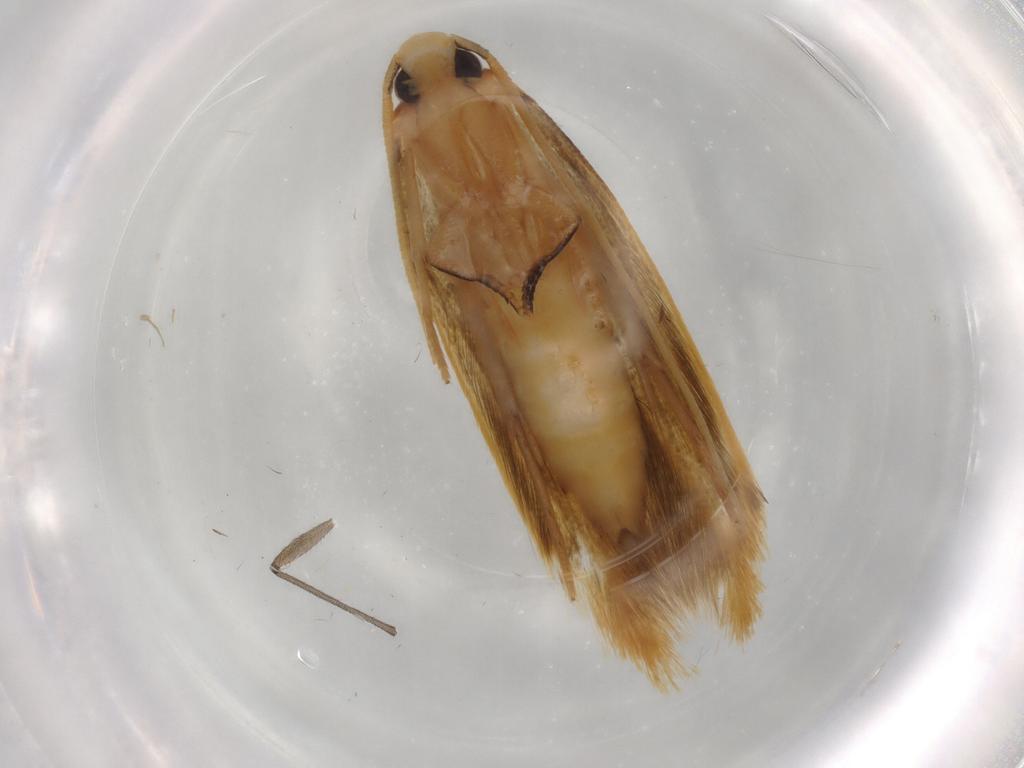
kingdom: Animalia
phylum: Arthropoda
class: Insecta
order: Lepidoptera
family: Tineidae
